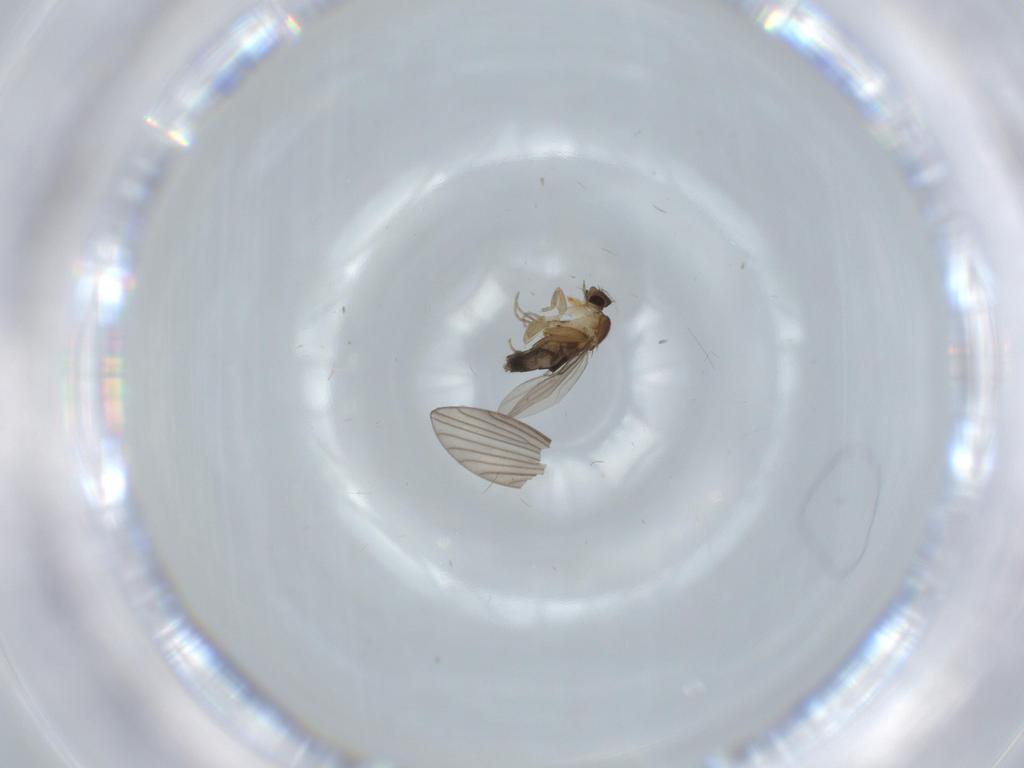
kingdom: Animalia
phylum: Arthropoda
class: Insecta
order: Diptera
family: Phoridae
